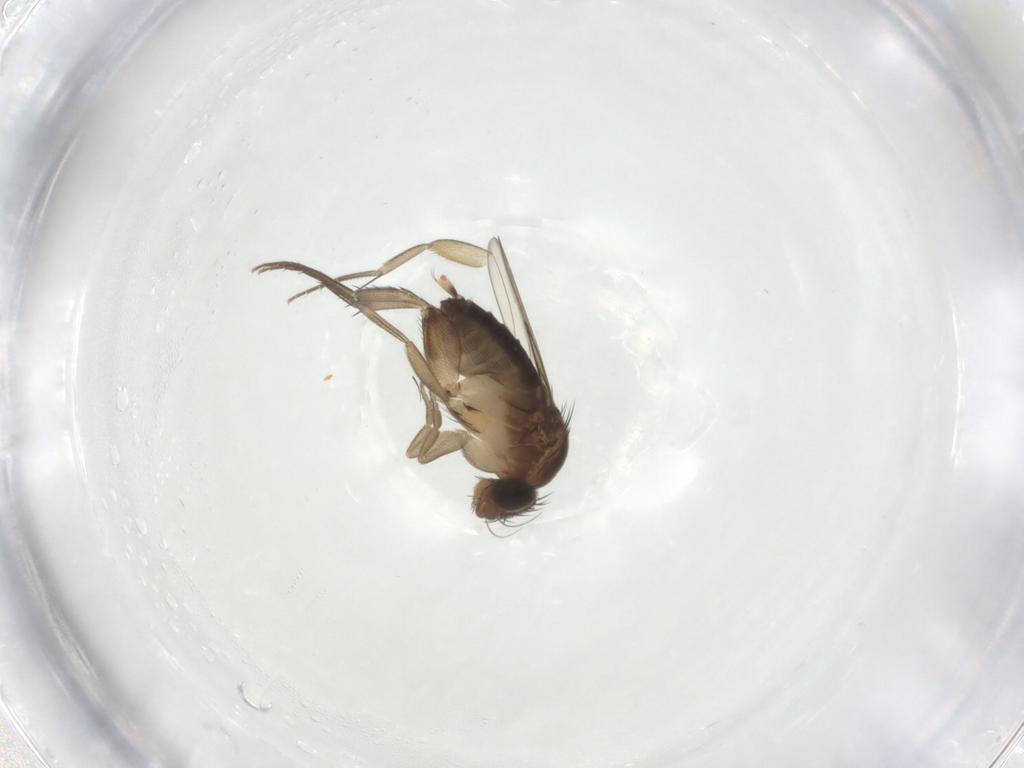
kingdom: Animalia
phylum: Arthropoda
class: Insecta
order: Diptera
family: Phoridae
